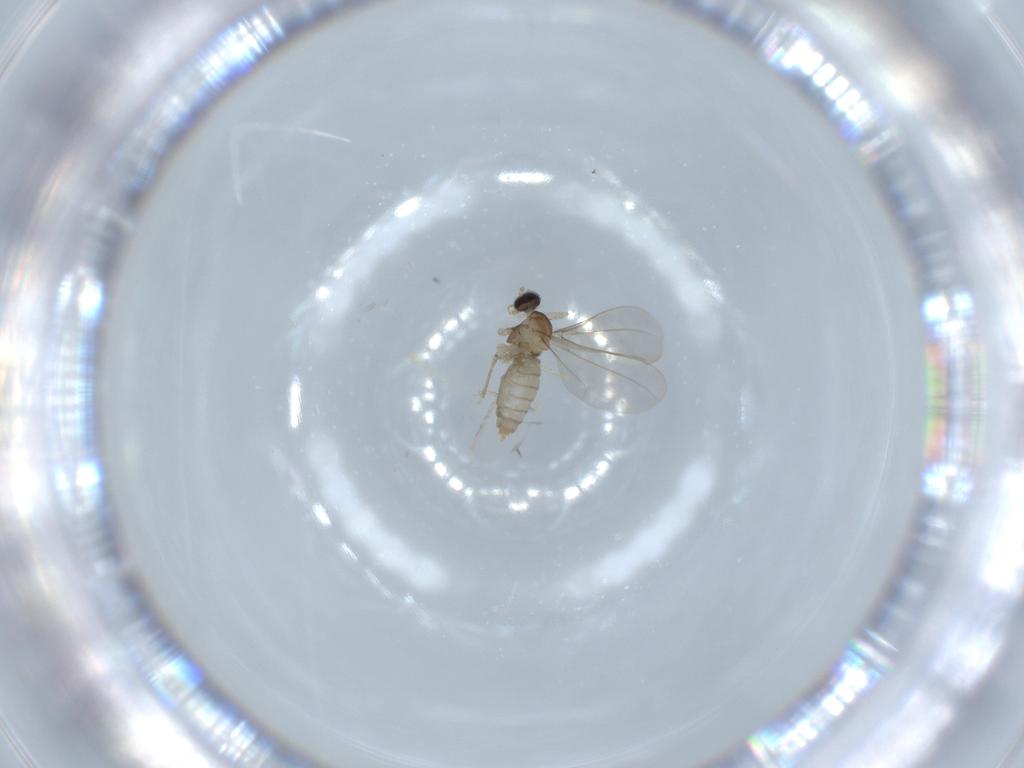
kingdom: Animalia
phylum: Arthropoda
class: Insecta
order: Diptera
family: Cecidomyiidae
